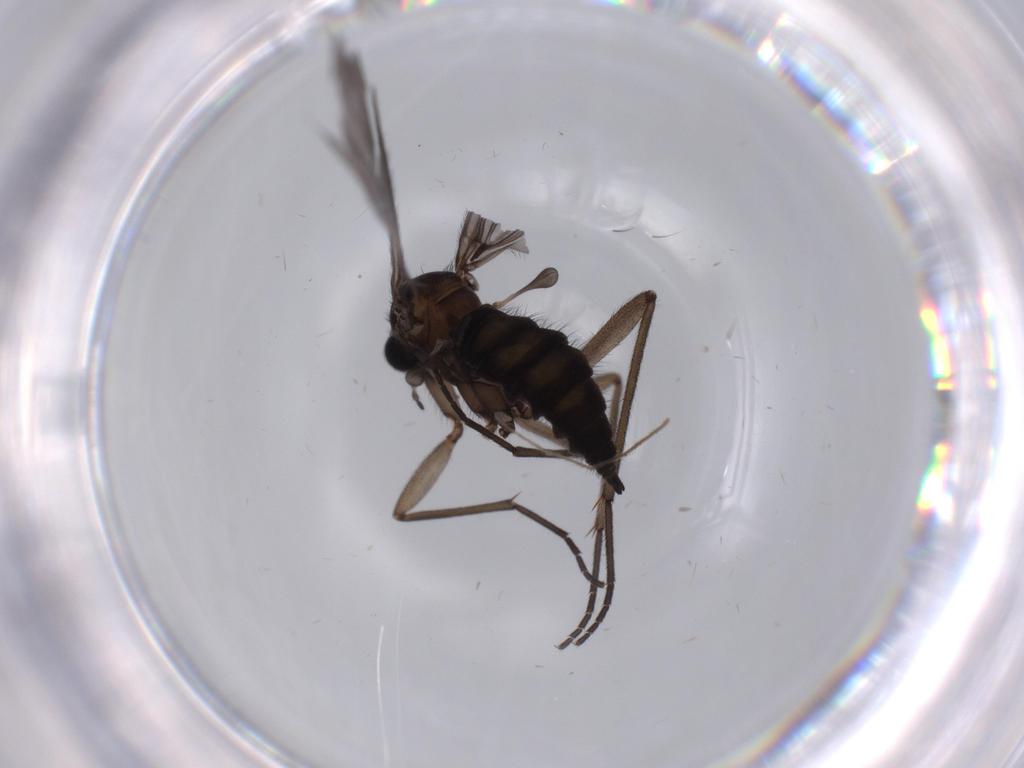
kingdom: Animalia
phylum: Arthropoda
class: Insecta
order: Diptera
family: Sciaridae
